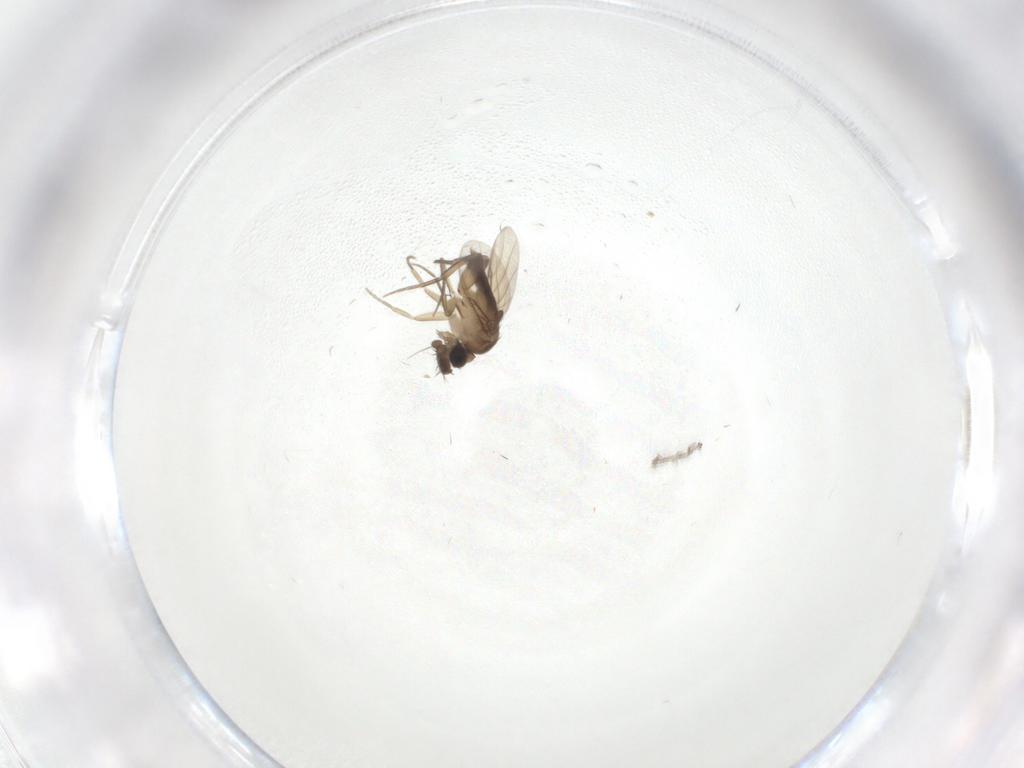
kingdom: Animalia
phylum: Arthropoda
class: Insecta
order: Diptera
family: Phoridae
